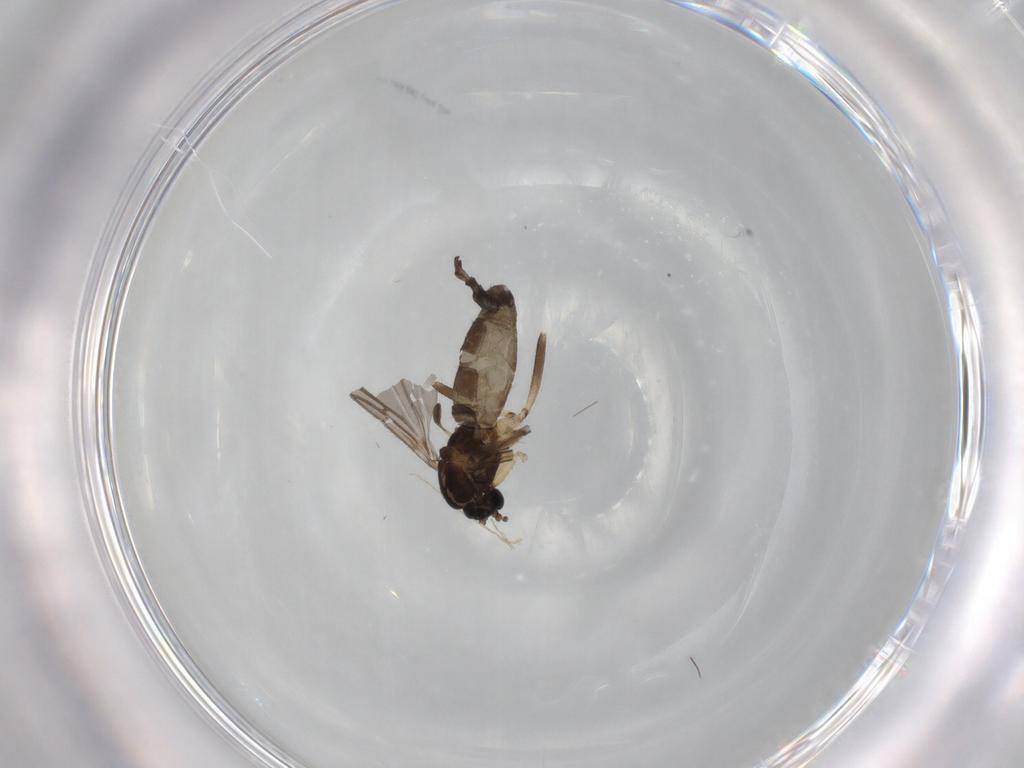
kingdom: Animalia
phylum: Arthropoda
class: Insecta
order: Diptera
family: Sciaridae
